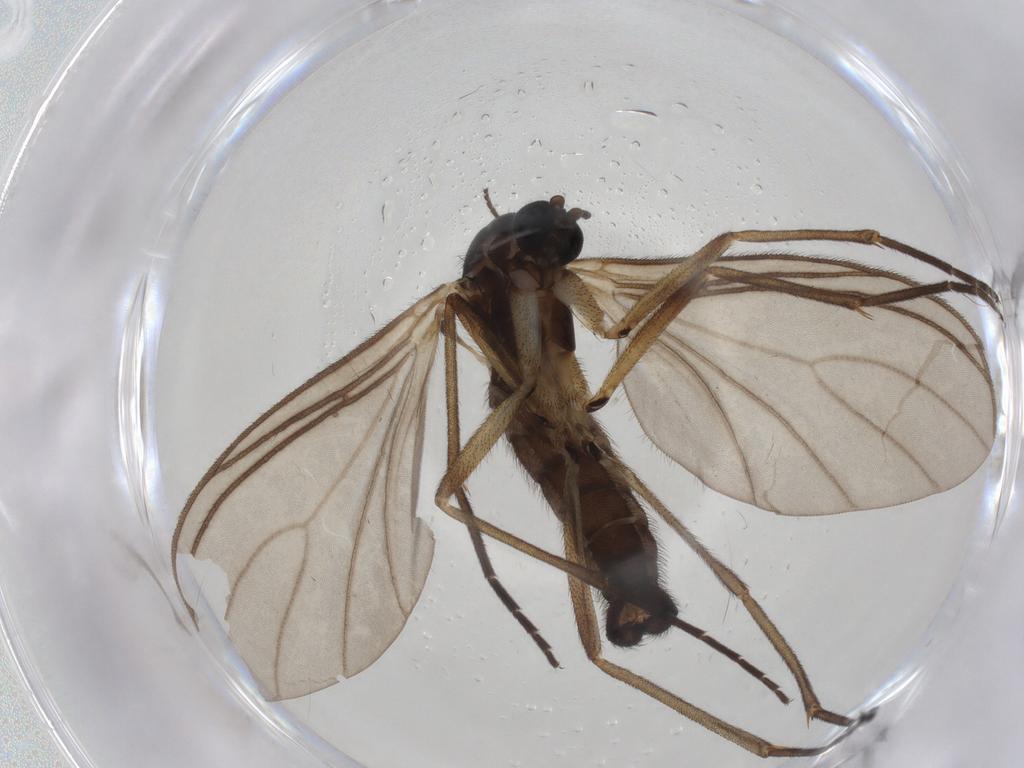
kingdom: Animalia
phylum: Arthropoda
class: Insecta
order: Diptera
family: Sciaridae
